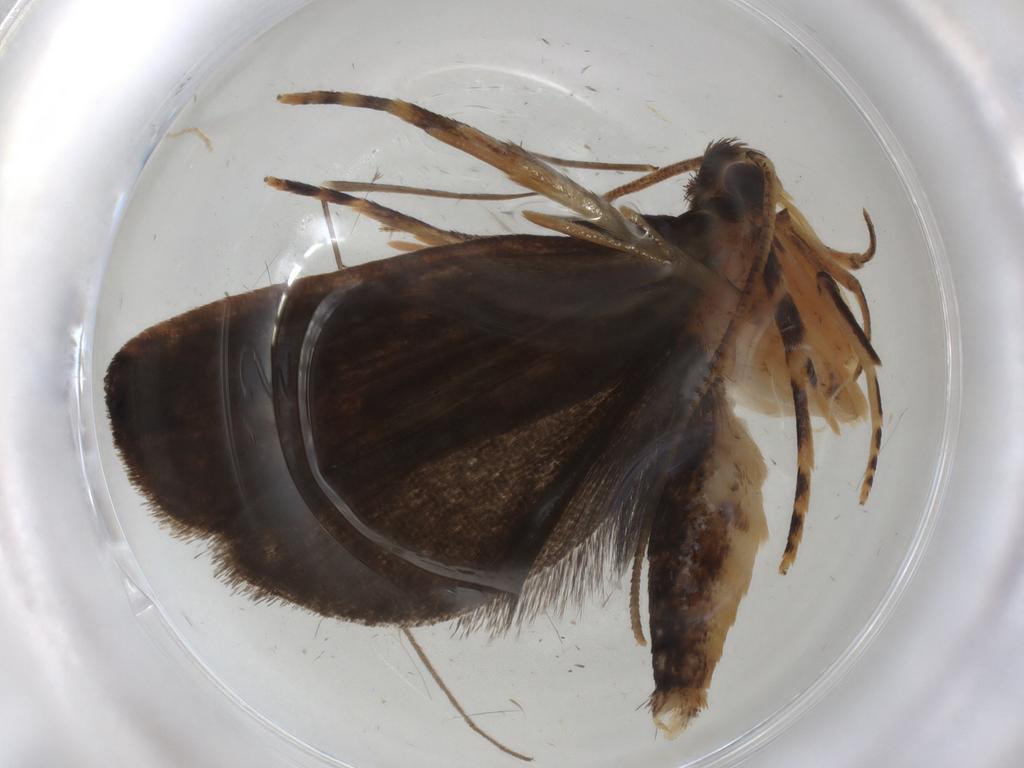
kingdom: Animalia
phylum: Arthropoda
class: Insecta
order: Lepidoptera
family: Gelechiidae
